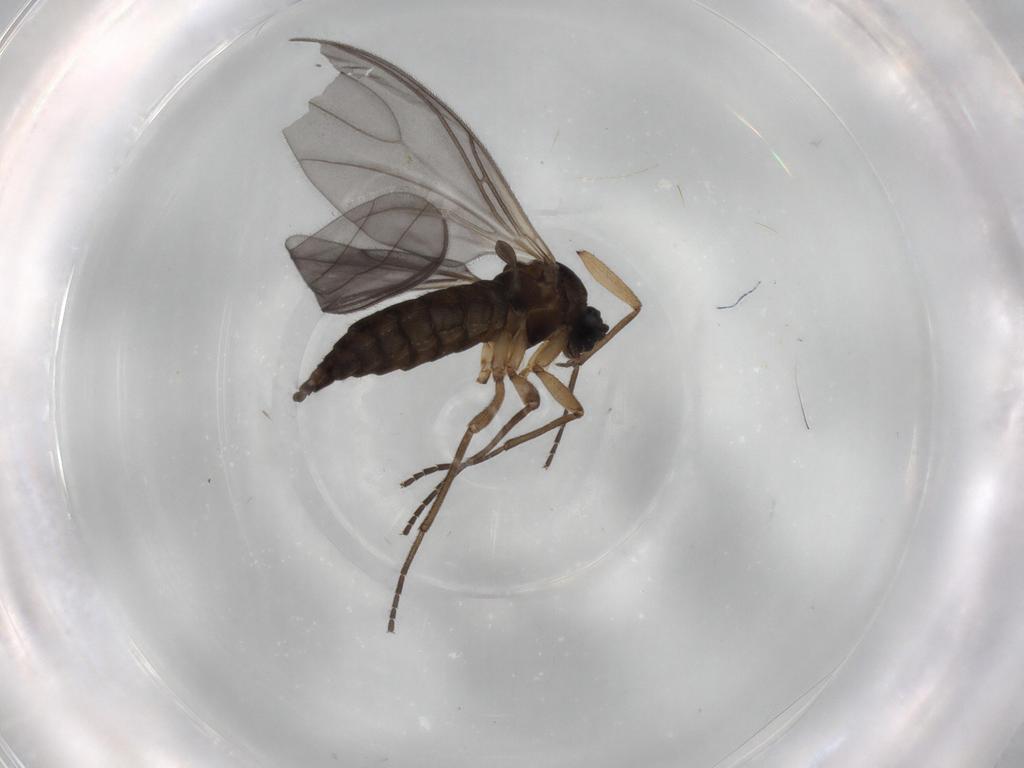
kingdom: Animalia
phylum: Arthropoda
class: Insecta
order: Diptera
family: Sciaridae
